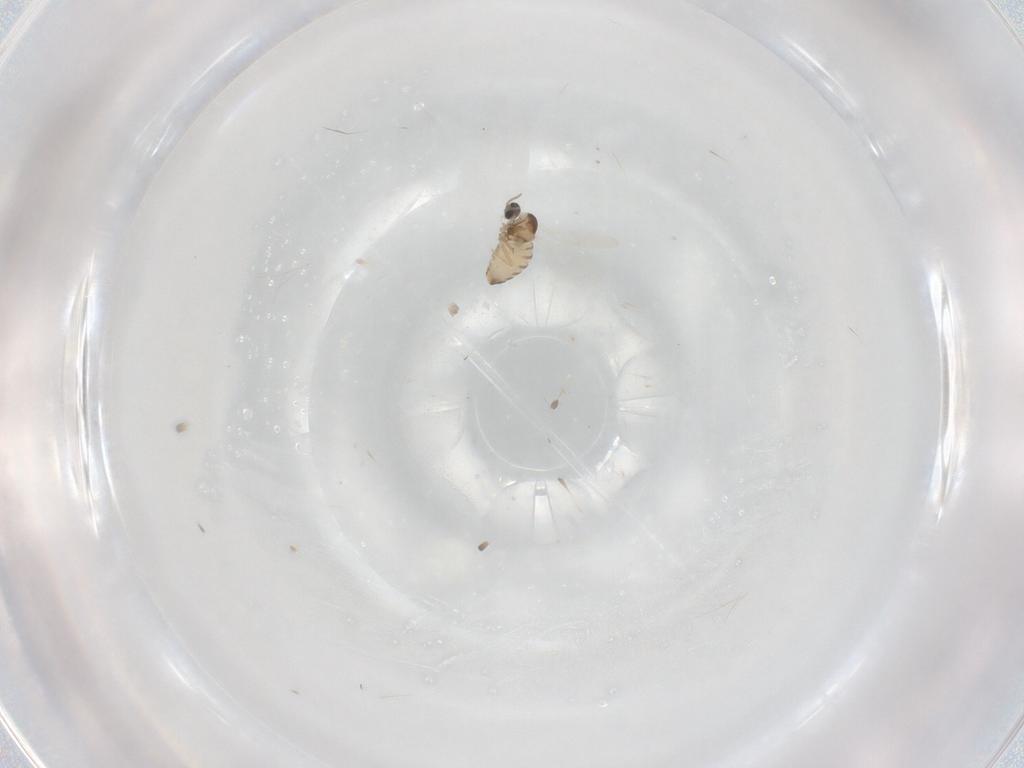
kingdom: Animalia
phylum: Arthropoda
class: Insecta
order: Diptera
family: Cecidomyiidae
